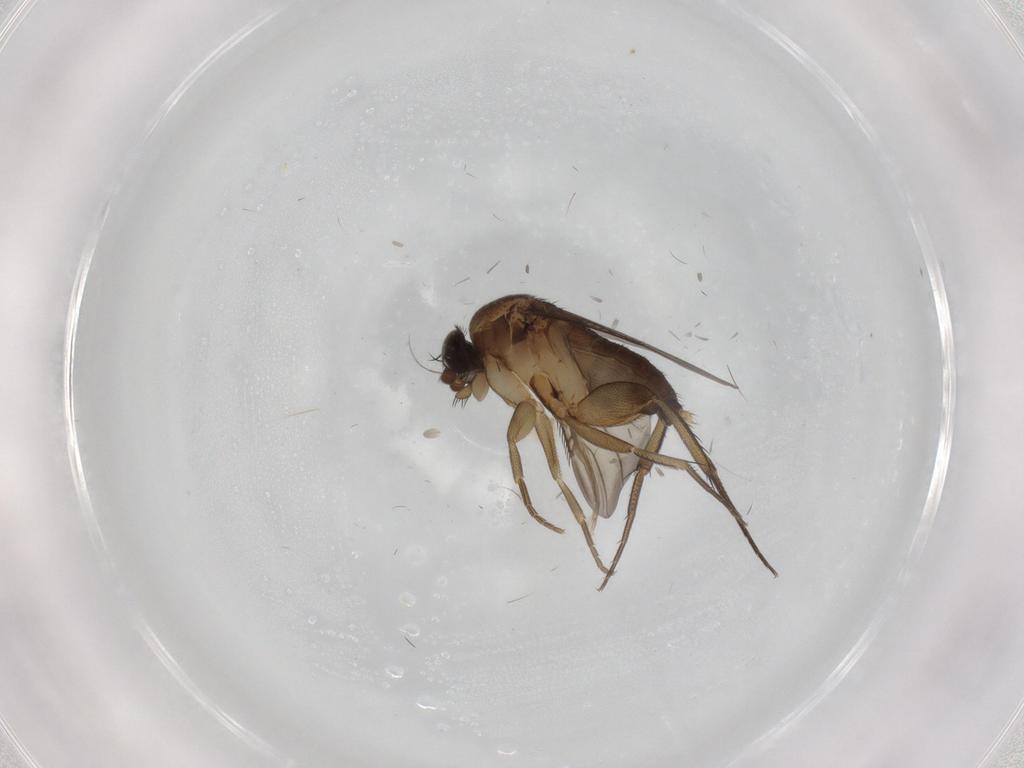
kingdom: Animalia
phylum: Arthropoda
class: Insecta
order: Diptera
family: Phoridae
